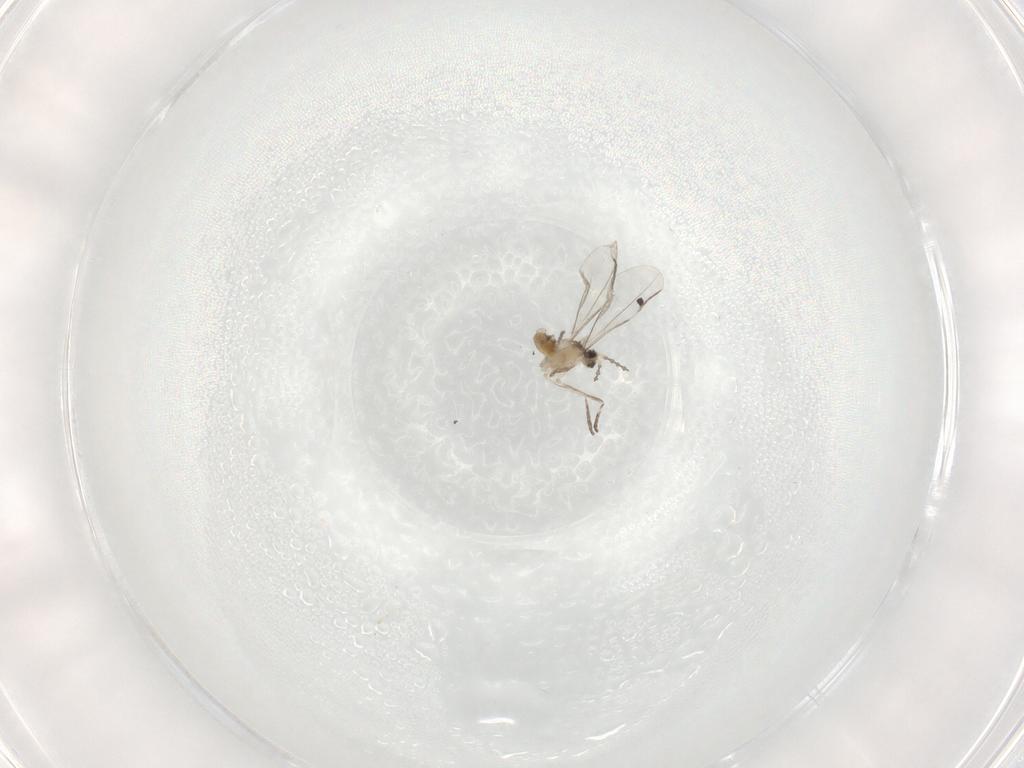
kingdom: Animalia
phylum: Arthropoda
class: Insecta
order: Diptera
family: Cecidomyiidae
